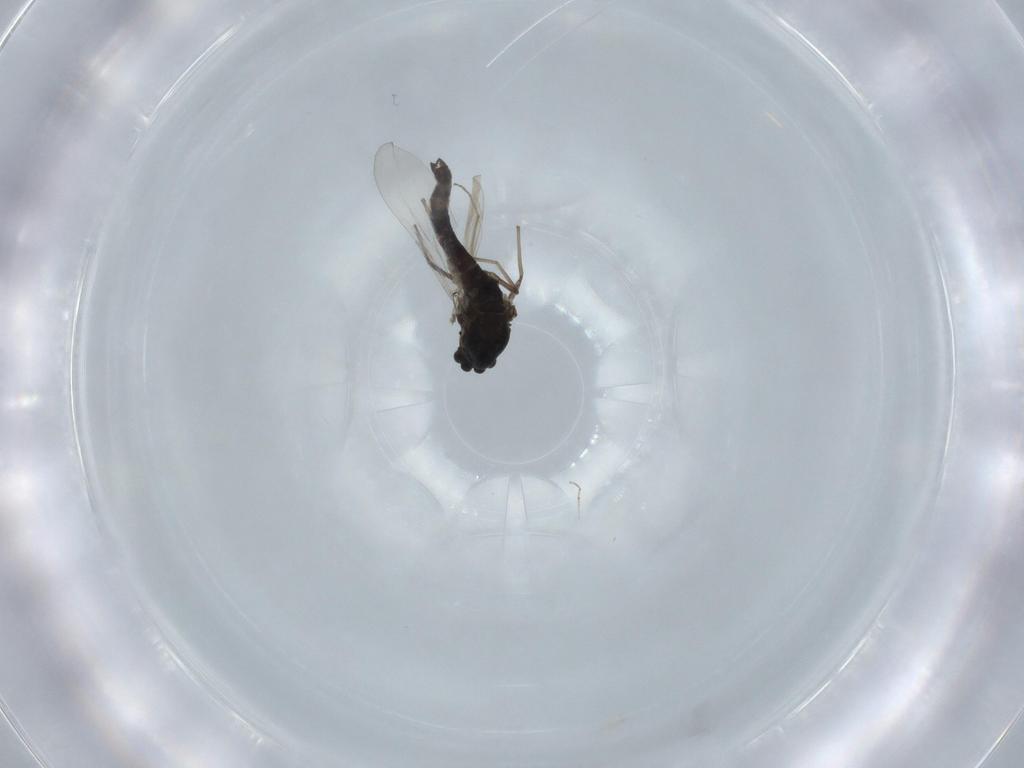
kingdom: Animalia
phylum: Arthropoda
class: Insecta
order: Diptera
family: Chironomidae
